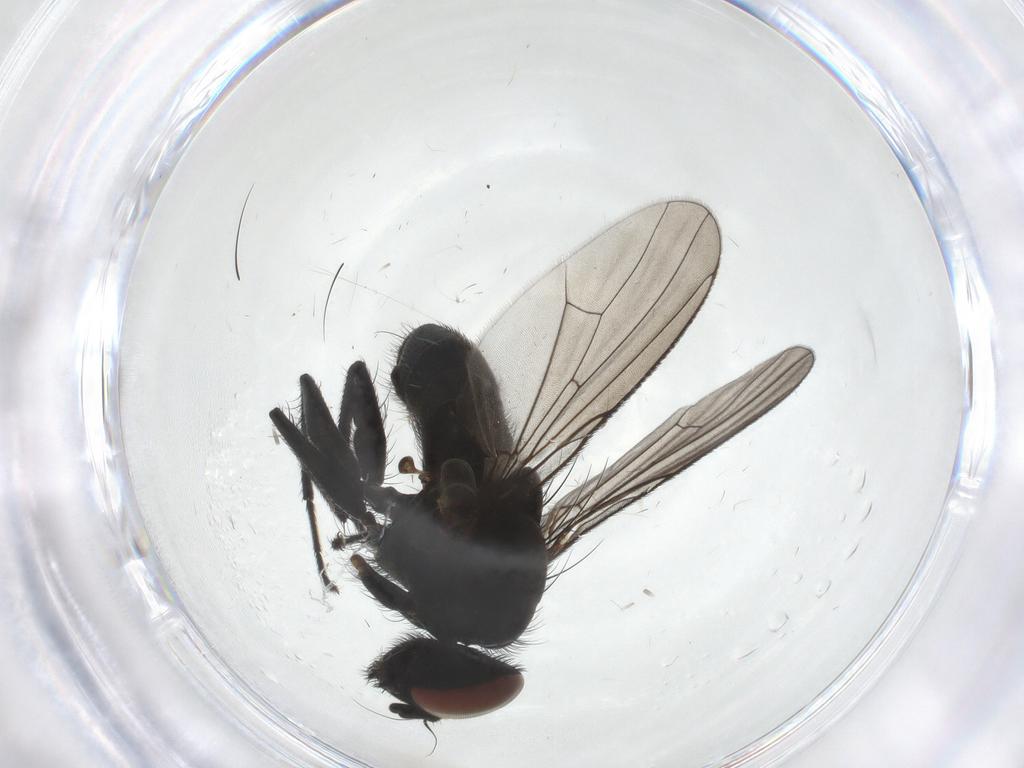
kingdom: Animalia
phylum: Arthropoda
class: Insecta
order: Diptera
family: Muscidae
